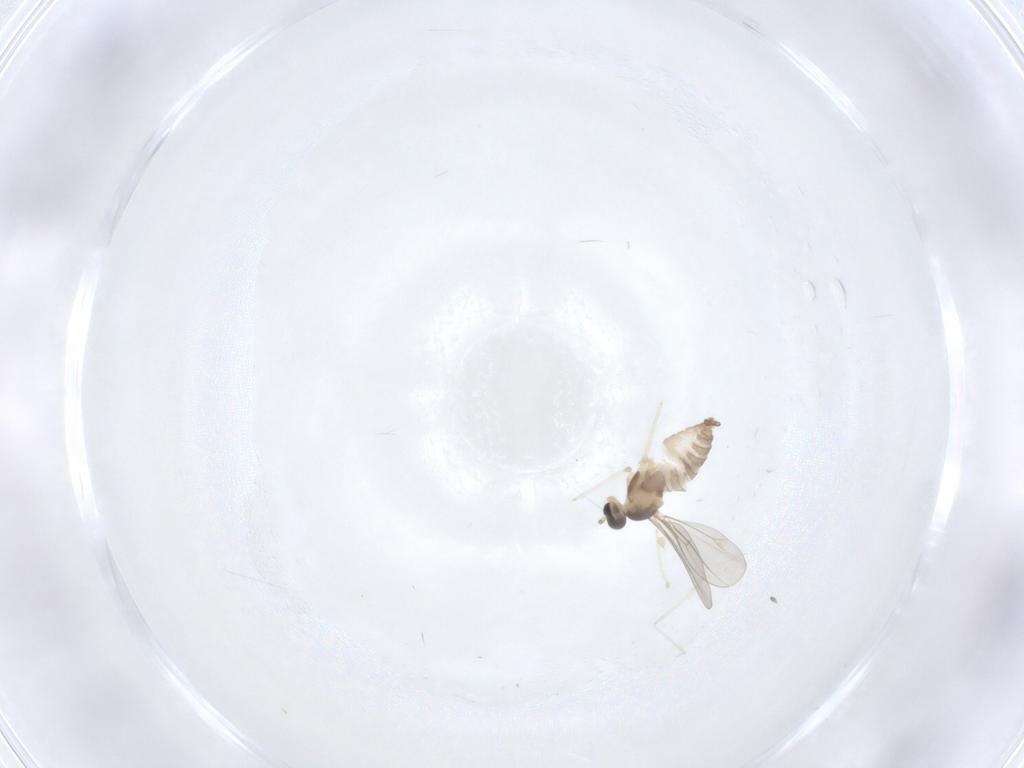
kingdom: Animalia
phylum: Arthropoda
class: Insecta
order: Diptera
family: Cecidomyiidae
